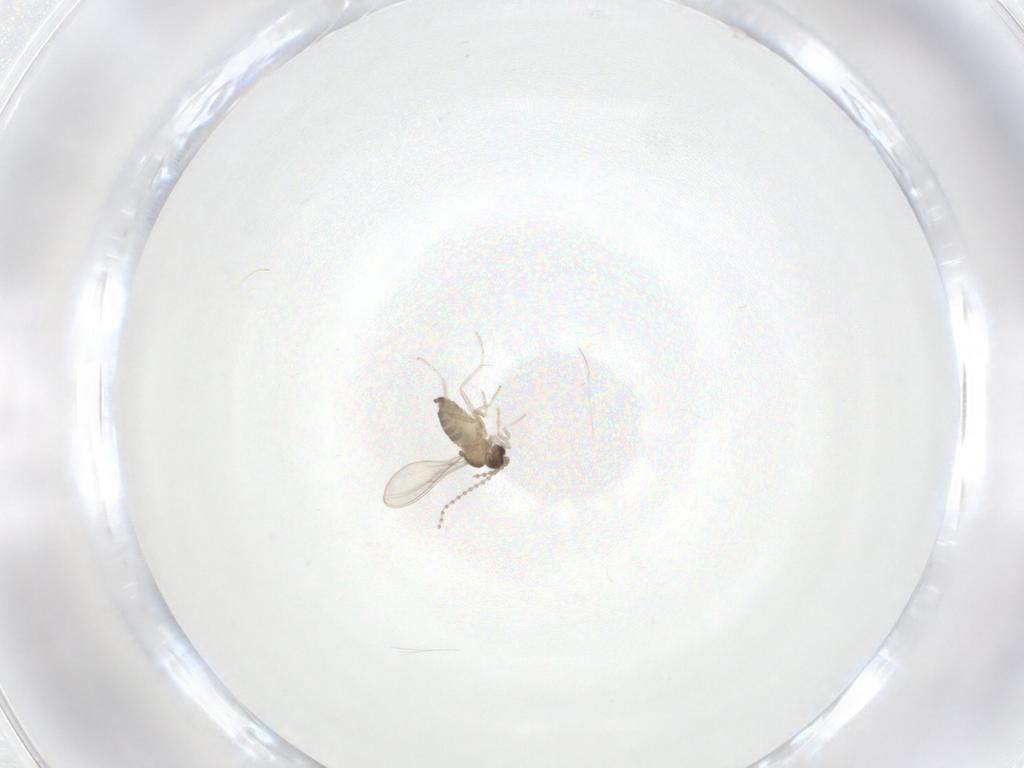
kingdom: Animalia
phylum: Arthropoda
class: Insecta
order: Diptera
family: Cecidomyiidae
